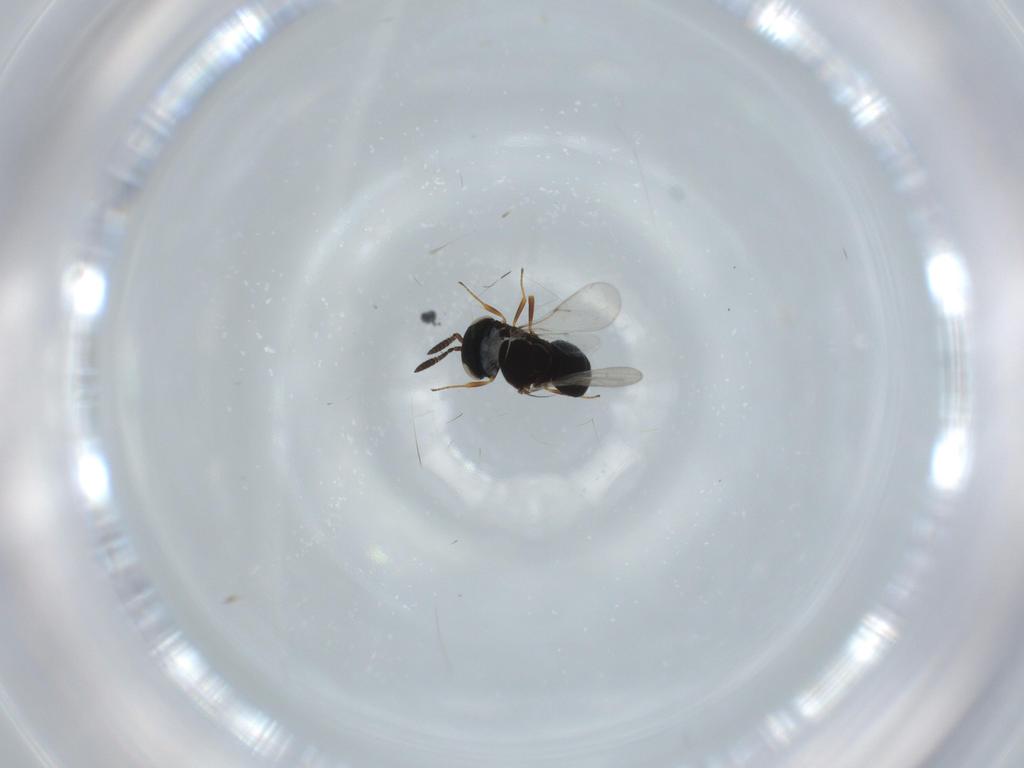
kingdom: Animalia
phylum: Arthropoda
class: Insecta
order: Hymenoptera
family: Scelionidae
